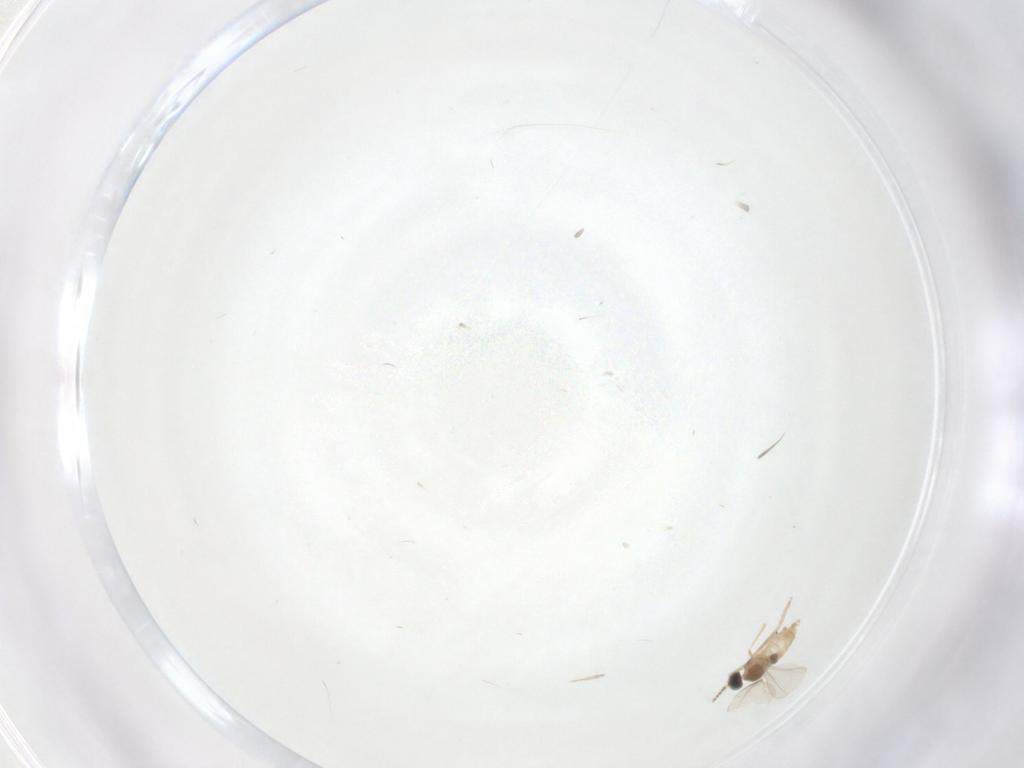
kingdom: Animalia
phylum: Arthropoda
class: Insecta
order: Diptera
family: Cecidomyiidae
